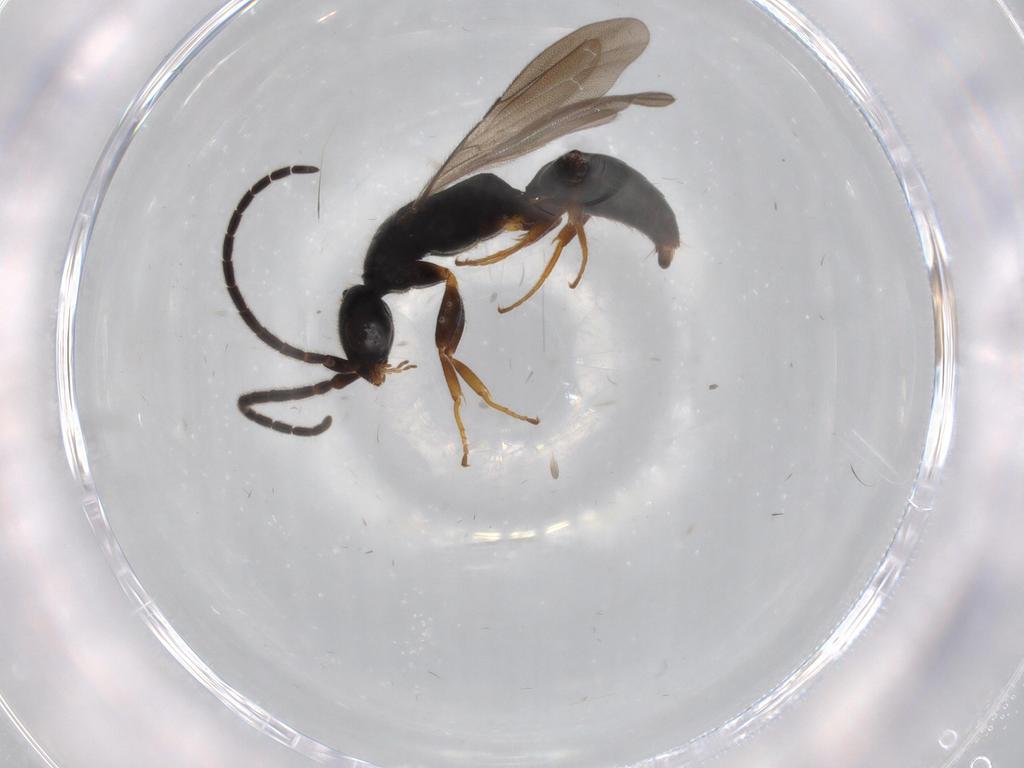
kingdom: Animalia
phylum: Arthropoda
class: Insecta
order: Hymenoptera
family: Bethylidae
